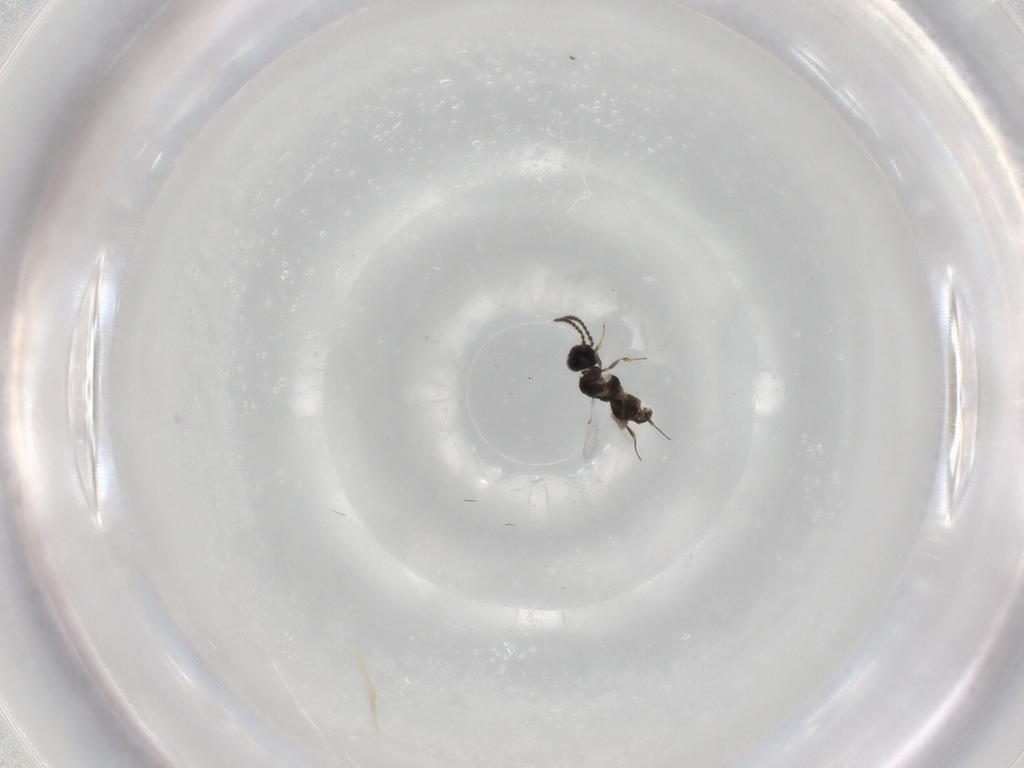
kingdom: Animalia
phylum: Arthropoda
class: Insecta
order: Hymenoptera
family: Scelionidae
